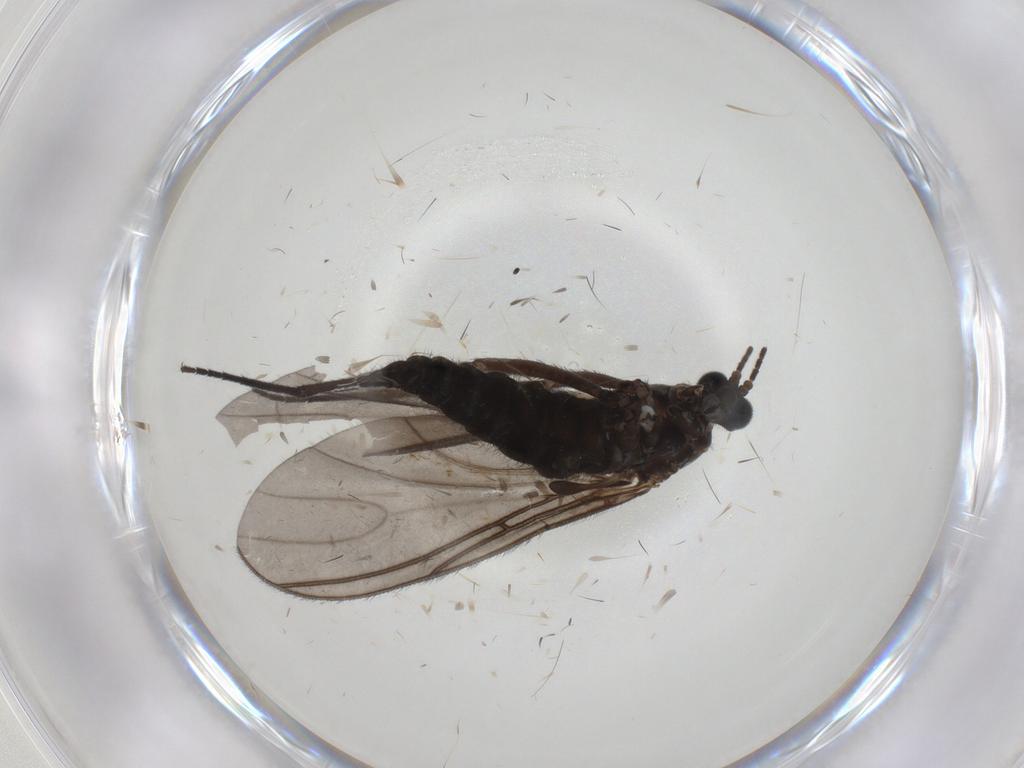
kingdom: Animalia
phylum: Arthropoda
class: Insecta
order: Diptera
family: Sciaridae
